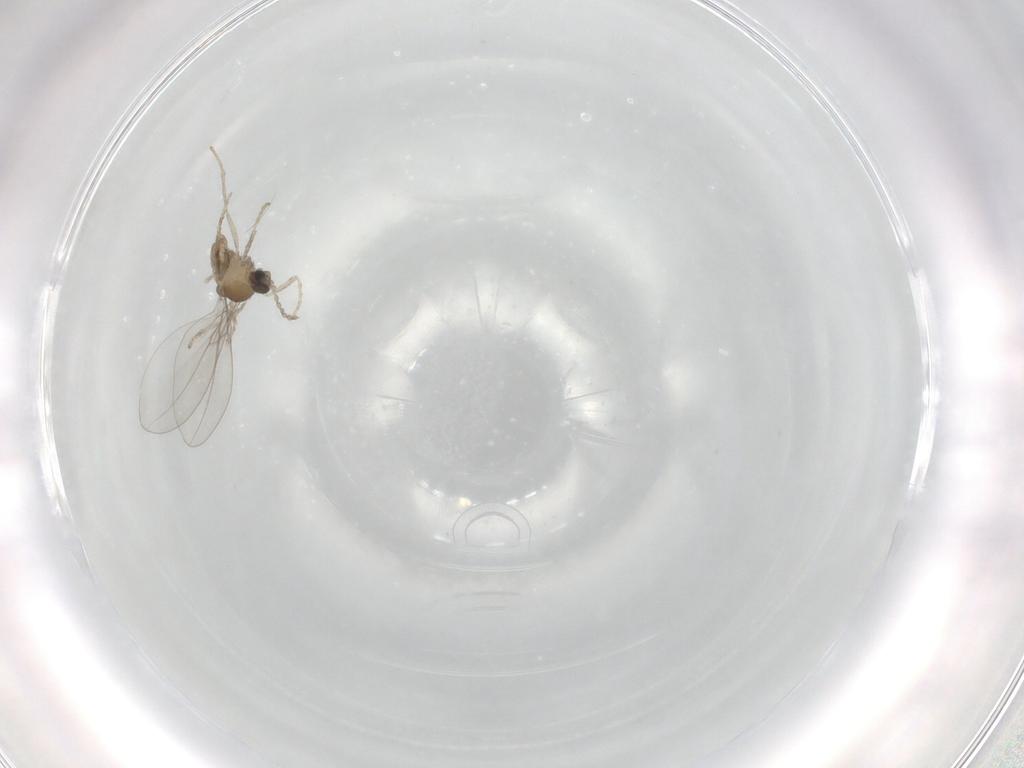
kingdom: Animalia
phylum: Arthropoda
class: Insecta
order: Diptera
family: Cecidomyiidae
